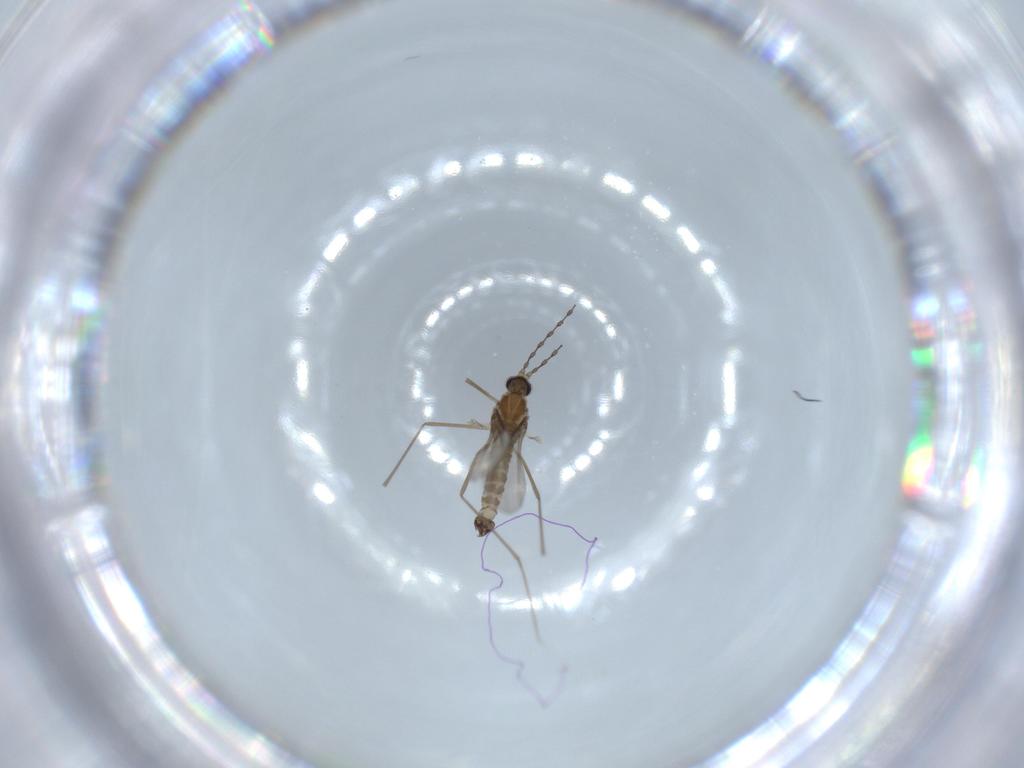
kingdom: Animalia
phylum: Arthropoda
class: Insecta
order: Diptera
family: Cecidomyiidae
